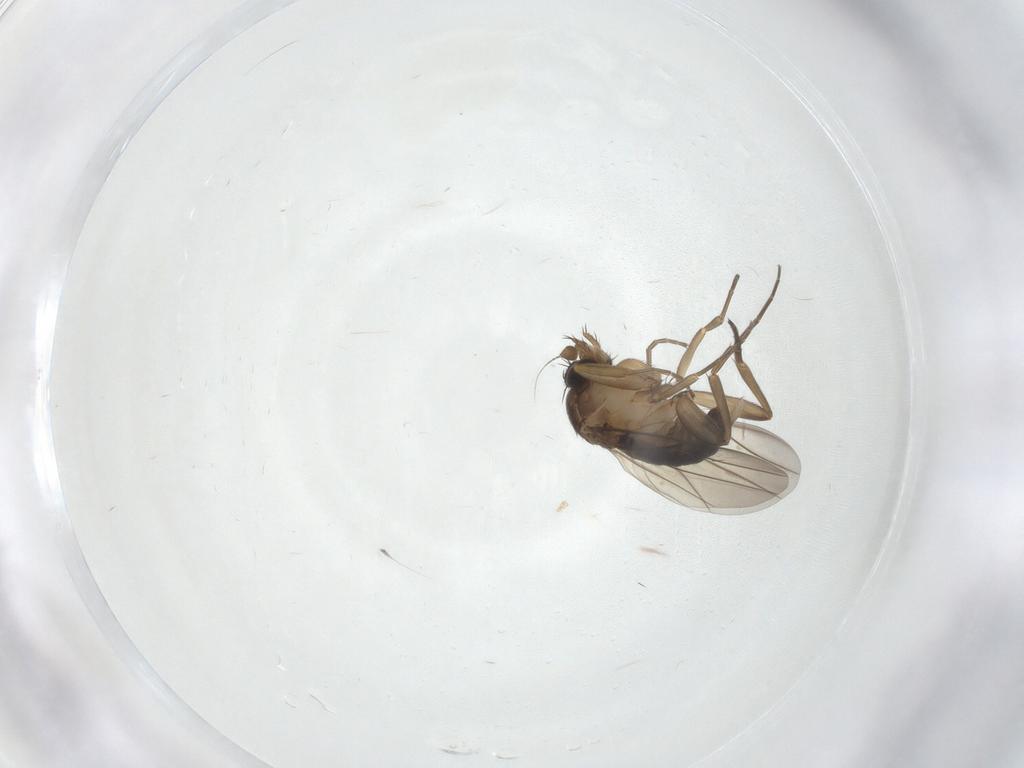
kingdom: Animalia
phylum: Arthropoda
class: Insecta
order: Diptera
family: Phoridae
